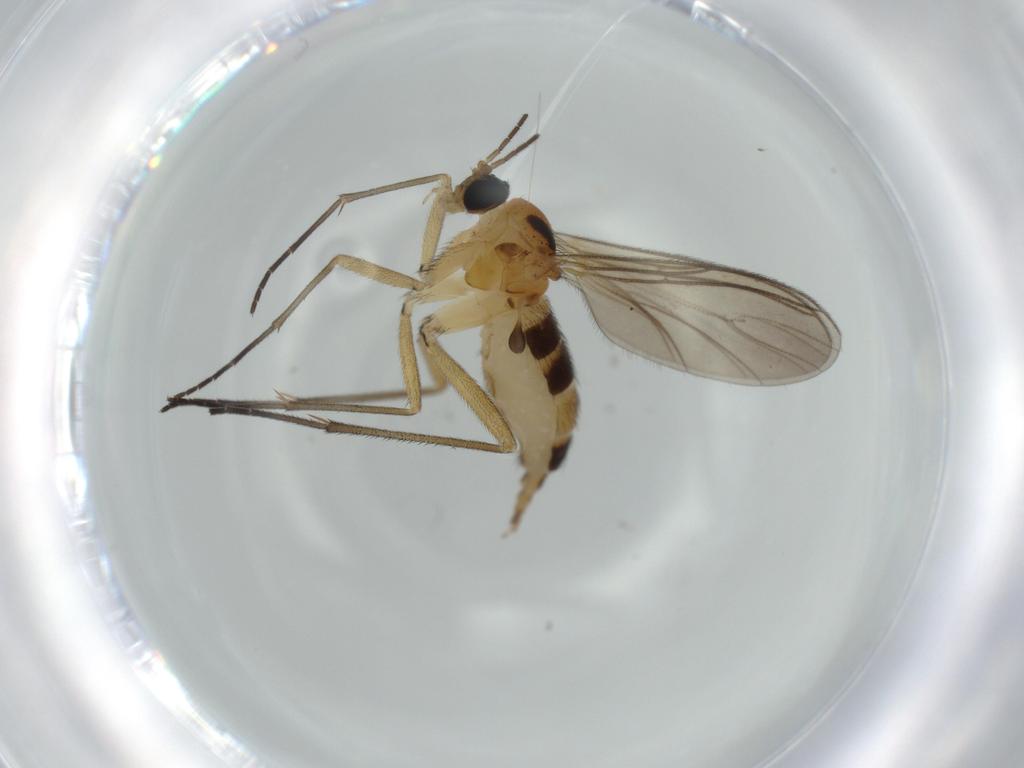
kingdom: Animalia
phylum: Arthropoda
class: Insecta
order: Diptera
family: Sciaridae
